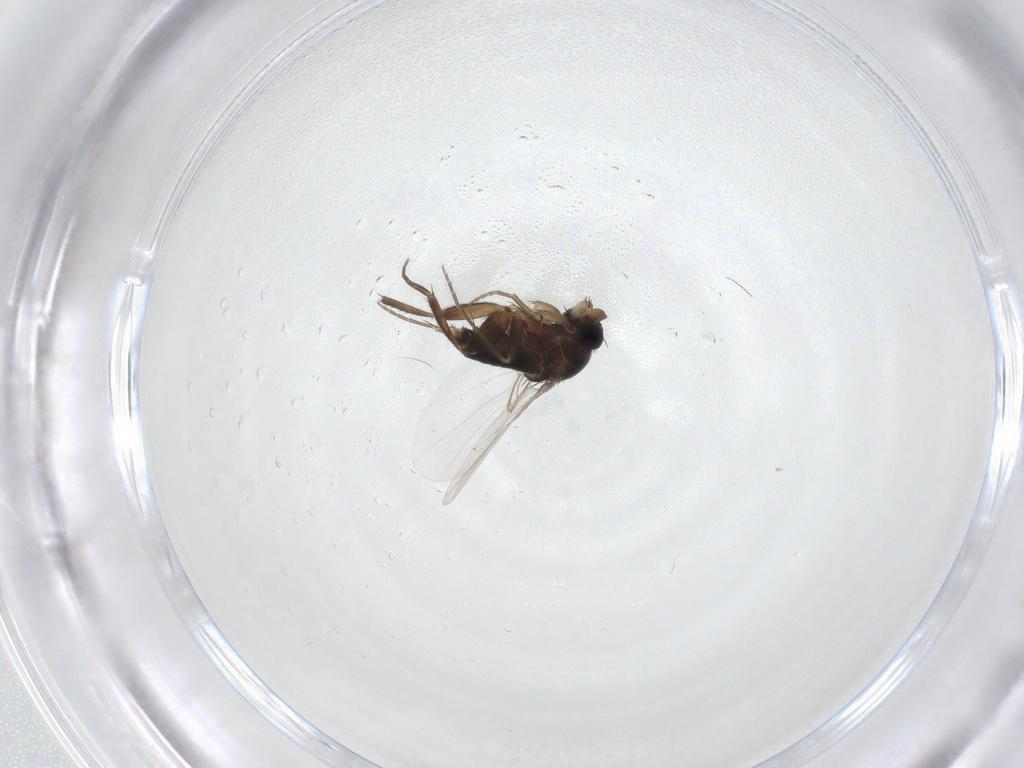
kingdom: Animalia
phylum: Arthropoda
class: Insecta
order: Diptera
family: Phoridae
